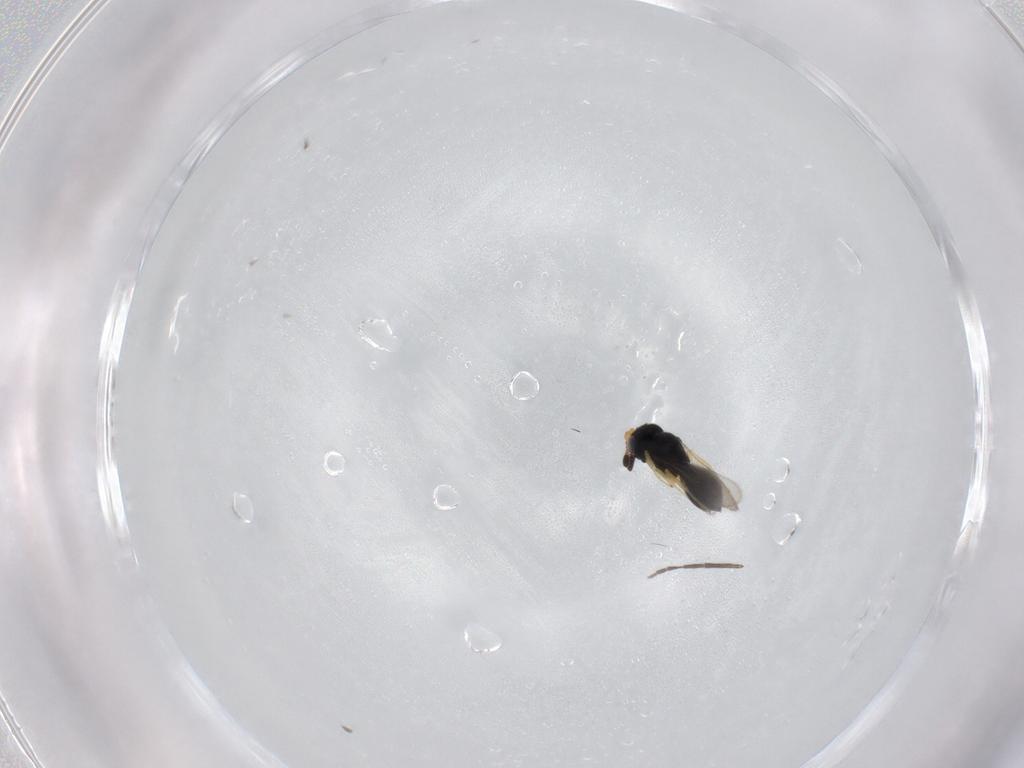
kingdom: Animalia
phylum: Arthropoda
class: Insecta
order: Hymenoptera
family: Scelionidae
